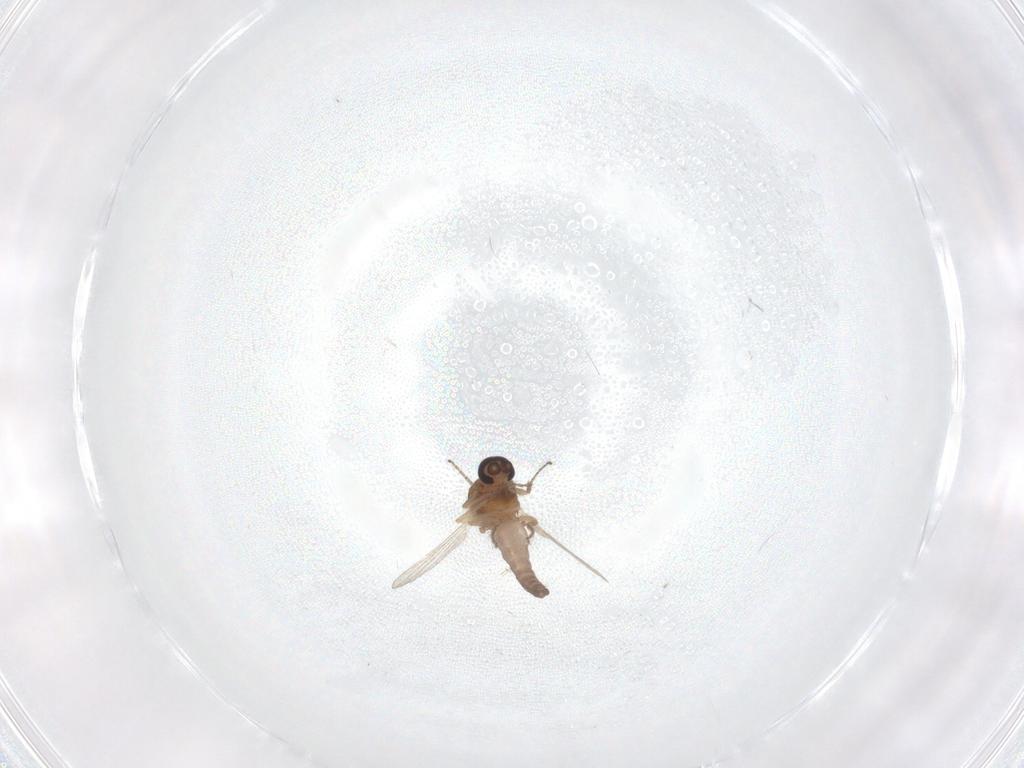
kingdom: Animalia
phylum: Arthropoda
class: Insecta
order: Diptera
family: Ceratopogonidae
